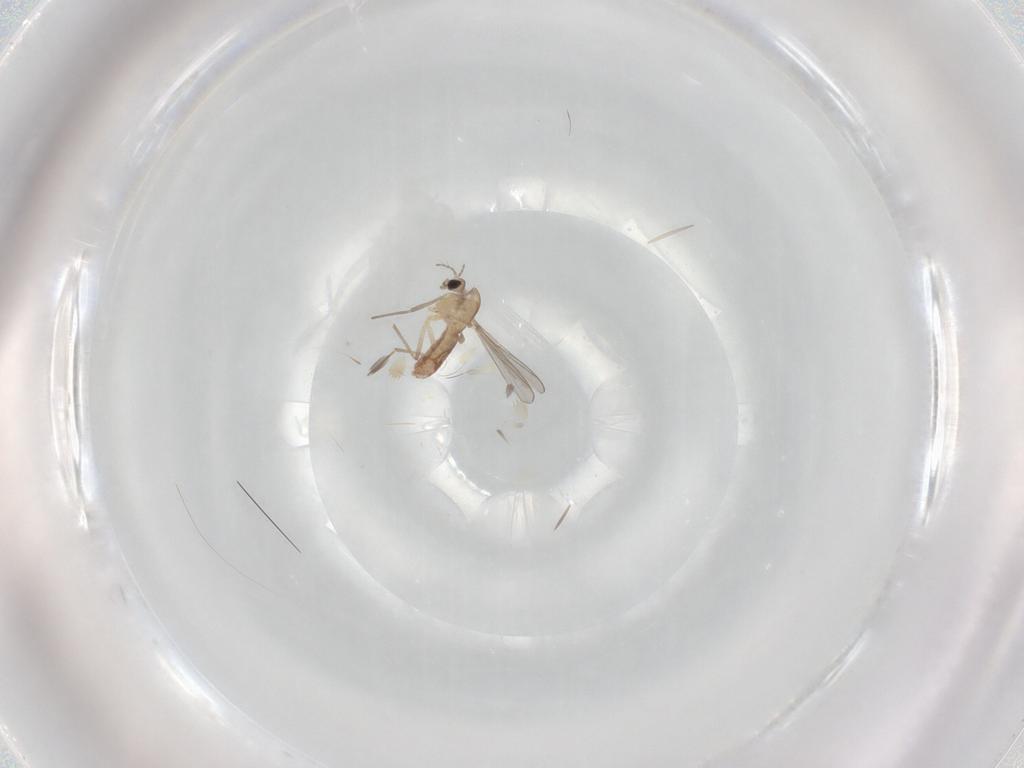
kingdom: Animalia
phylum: Arthropoda
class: Insecta
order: Diptera
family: Chironomidae
